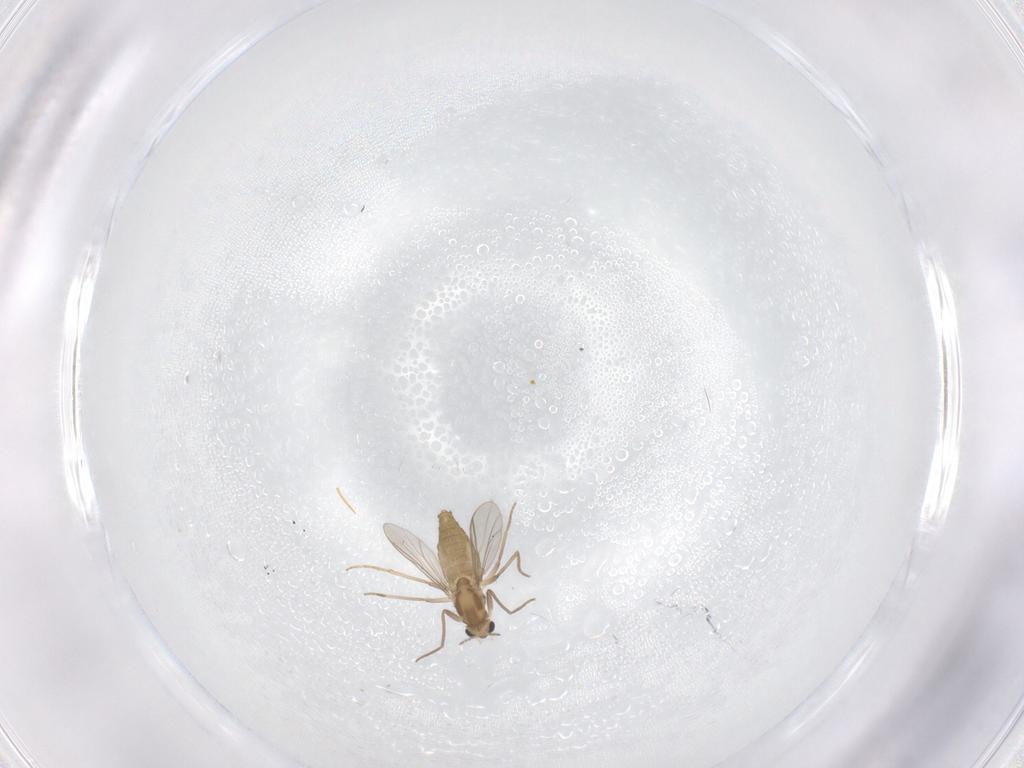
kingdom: Animalia
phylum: Arthropoda
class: Insecta
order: Diptera
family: Chironomidae
